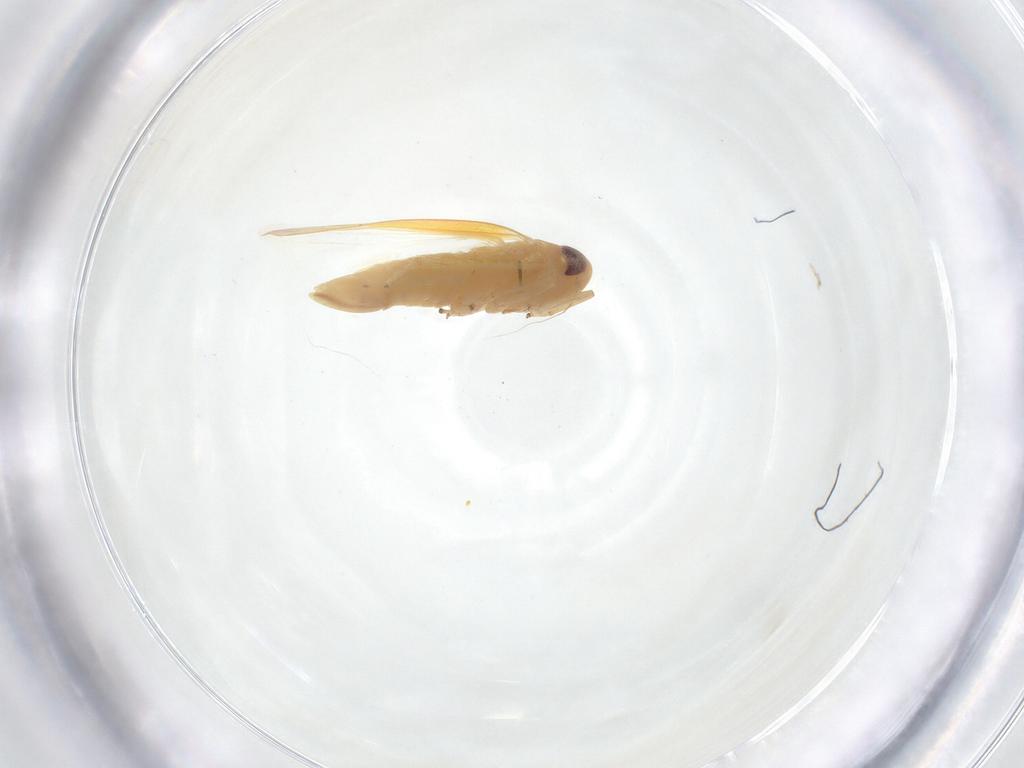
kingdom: Animalia
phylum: Arthropoda
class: Insecta
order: Hemiptera
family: Cicadellidae
